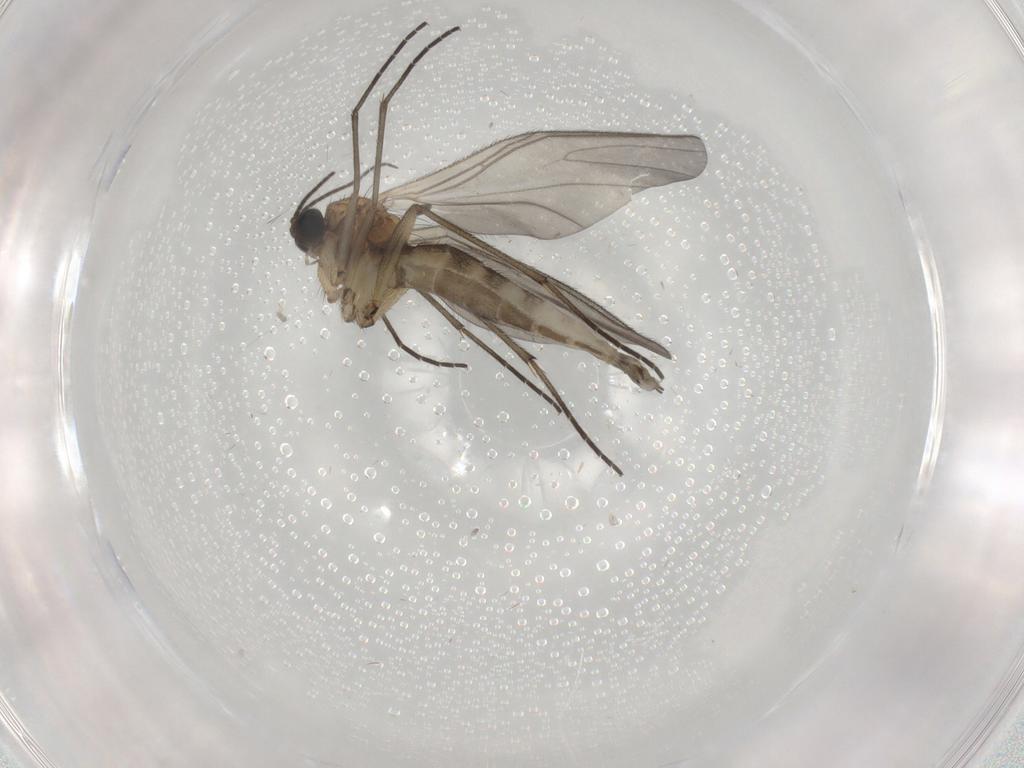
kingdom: Animalia
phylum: Arthropoda
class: Insecta
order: Diptera
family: Sciaridae
